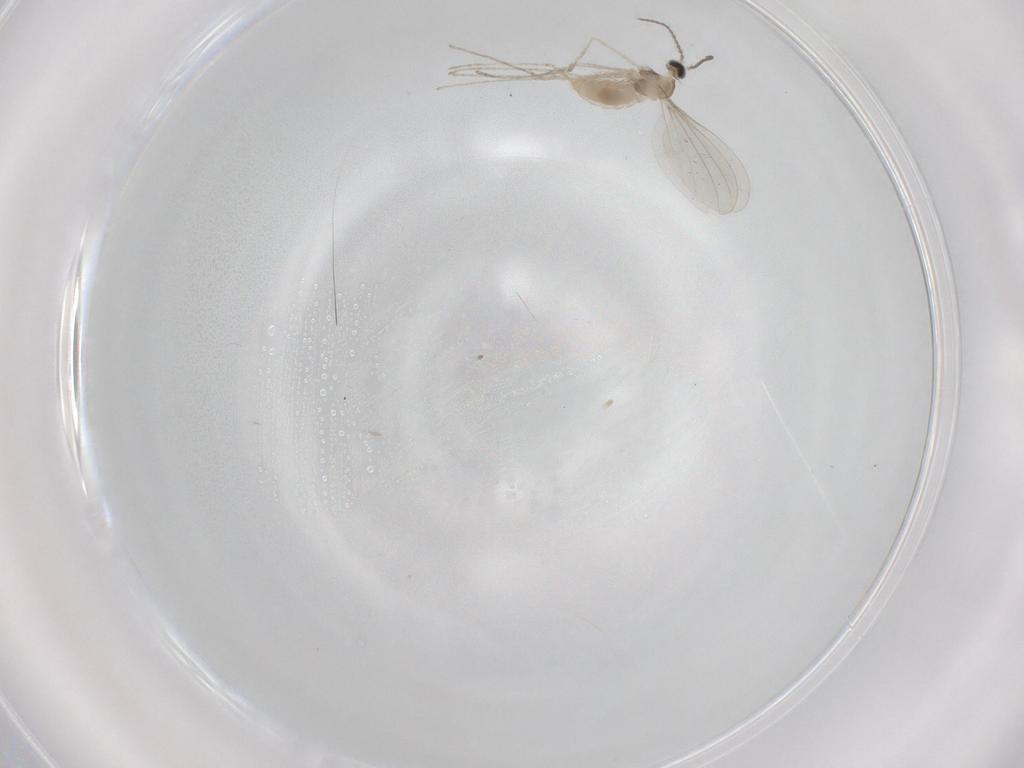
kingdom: Animalia
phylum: Arthropoda
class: Insecta
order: Diptera
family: Cecidomyiidae
